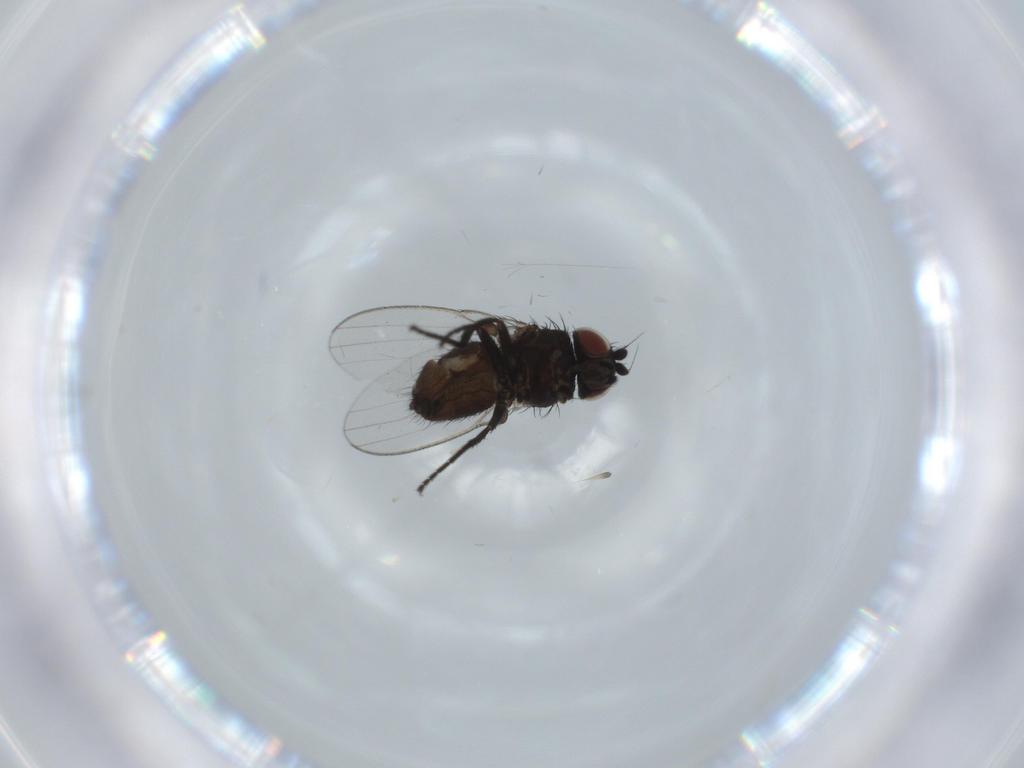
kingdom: Animalia
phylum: Arthropoda
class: Insecta
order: Diptera
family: Milichiidae
